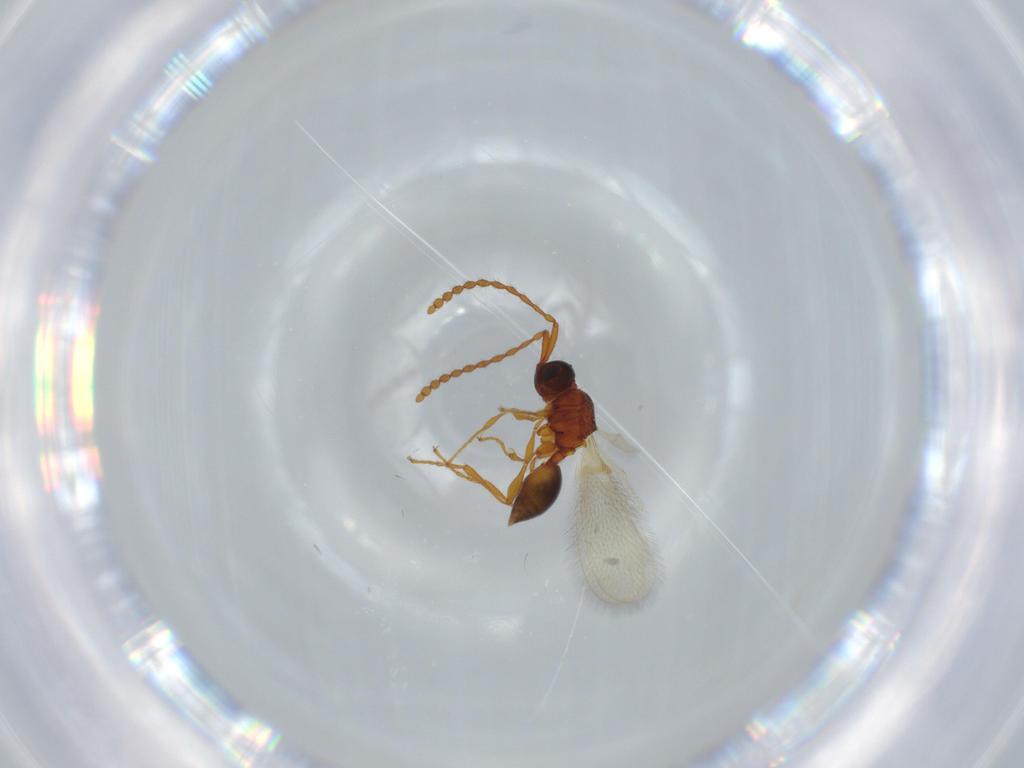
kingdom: Animalia
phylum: Arthropoda
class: Insecta
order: Hymenoptera
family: Diapriidae
